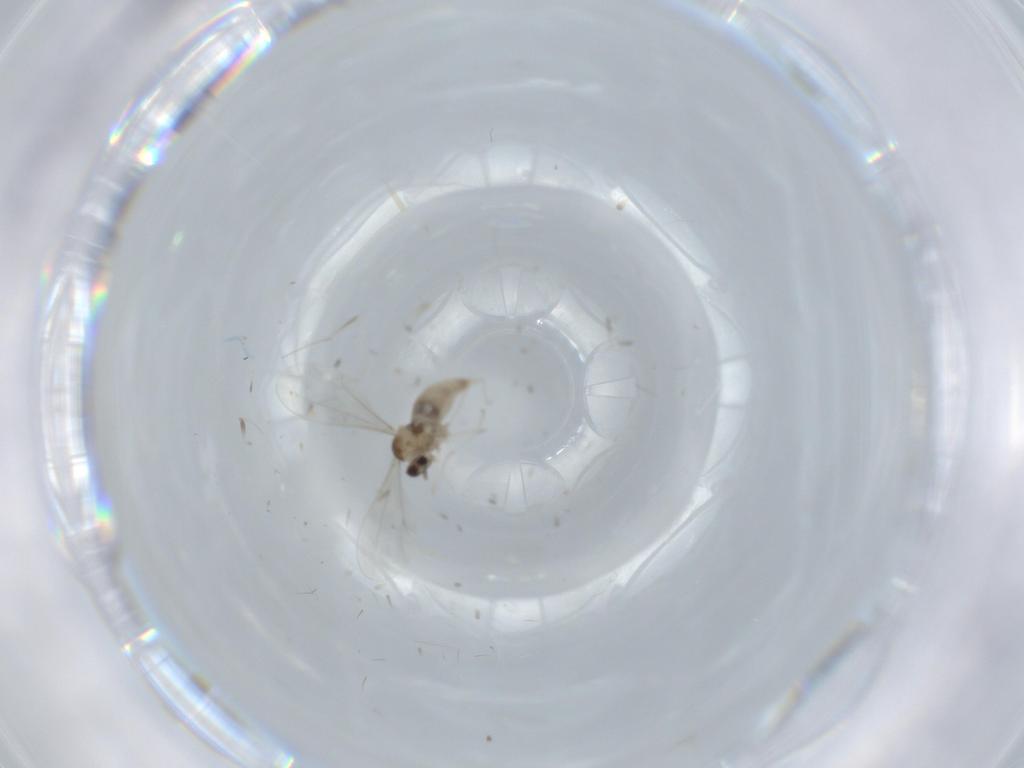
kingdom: Animalia
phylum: Arthropoda
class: Insecta
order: Diptera
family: Cecidomyiidae
